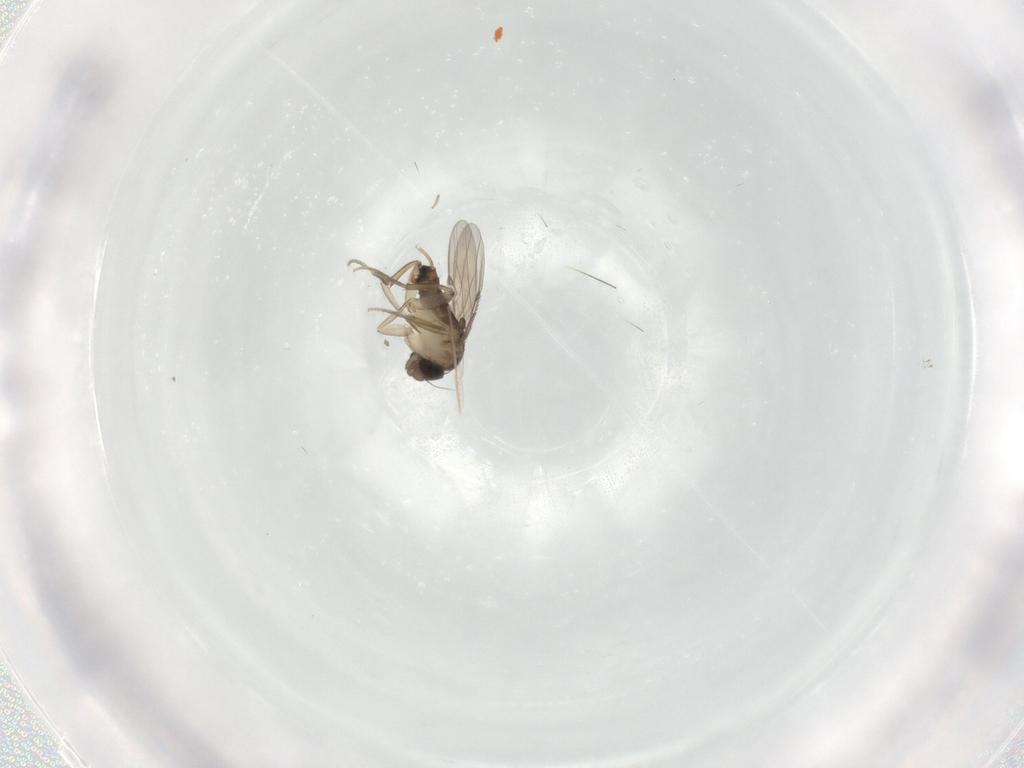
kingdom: Animalia
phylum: Arthropoda
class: Insecta
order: Diptera
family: Phoridae
